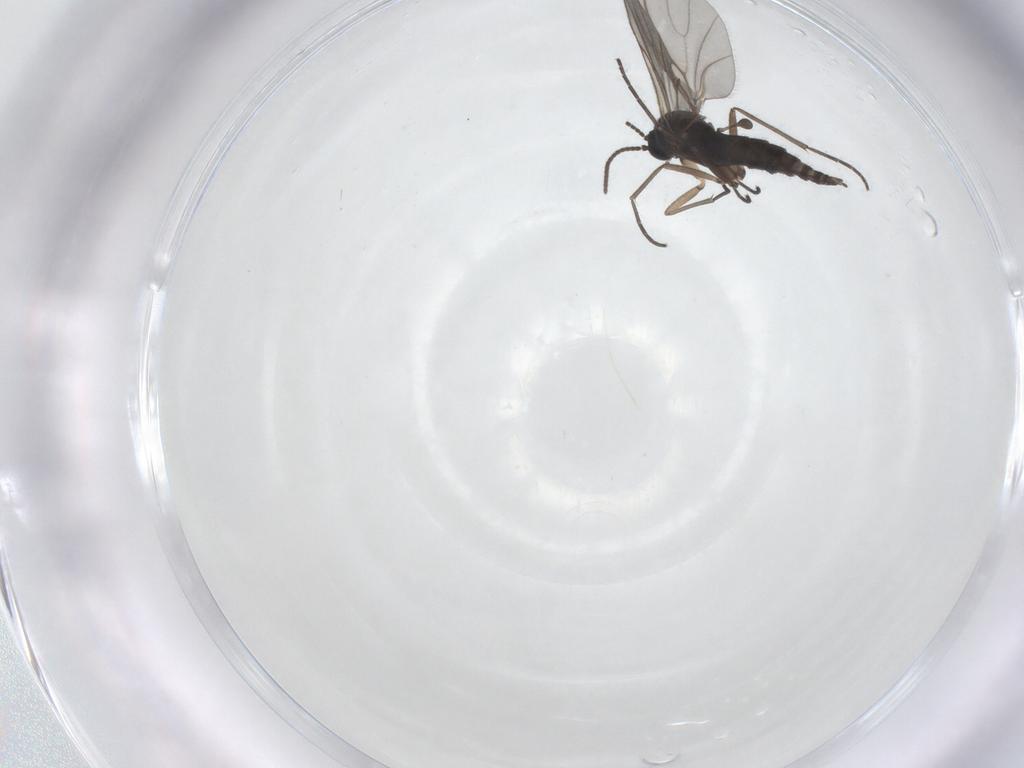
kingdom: Animalia
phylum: Arthropoda
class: Insecta
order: Diptera
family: Sciaridae
